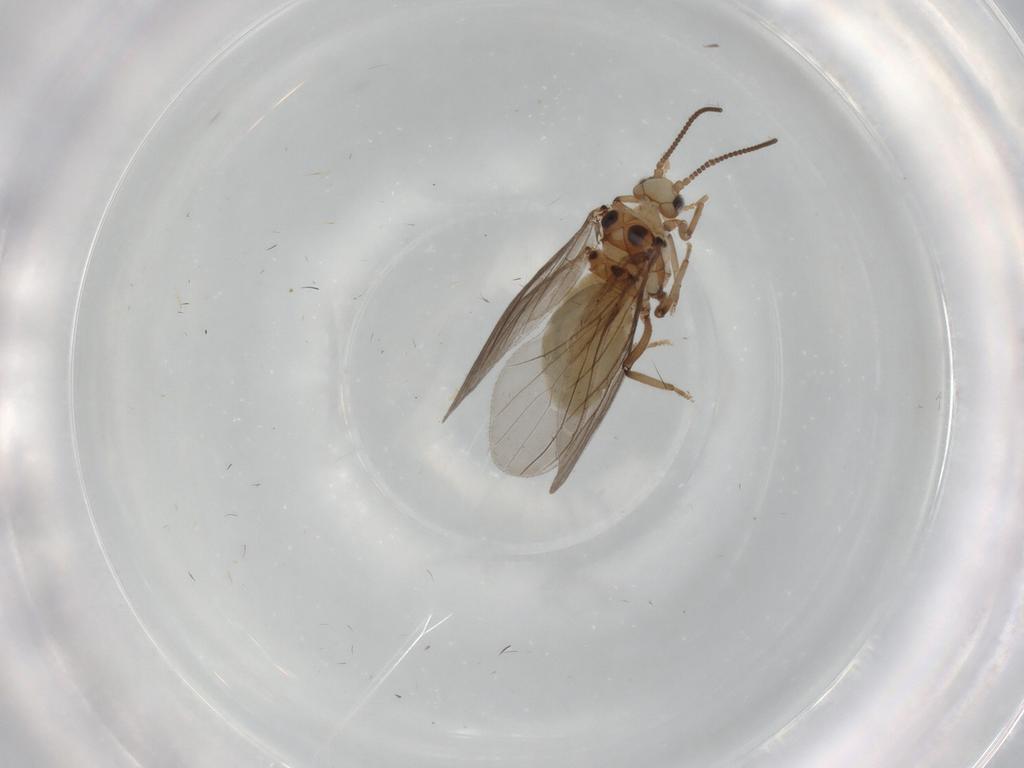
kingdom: Animalia
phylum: Arthropoda
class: Insecta
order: Neuroptera
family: Coniopterygidae
